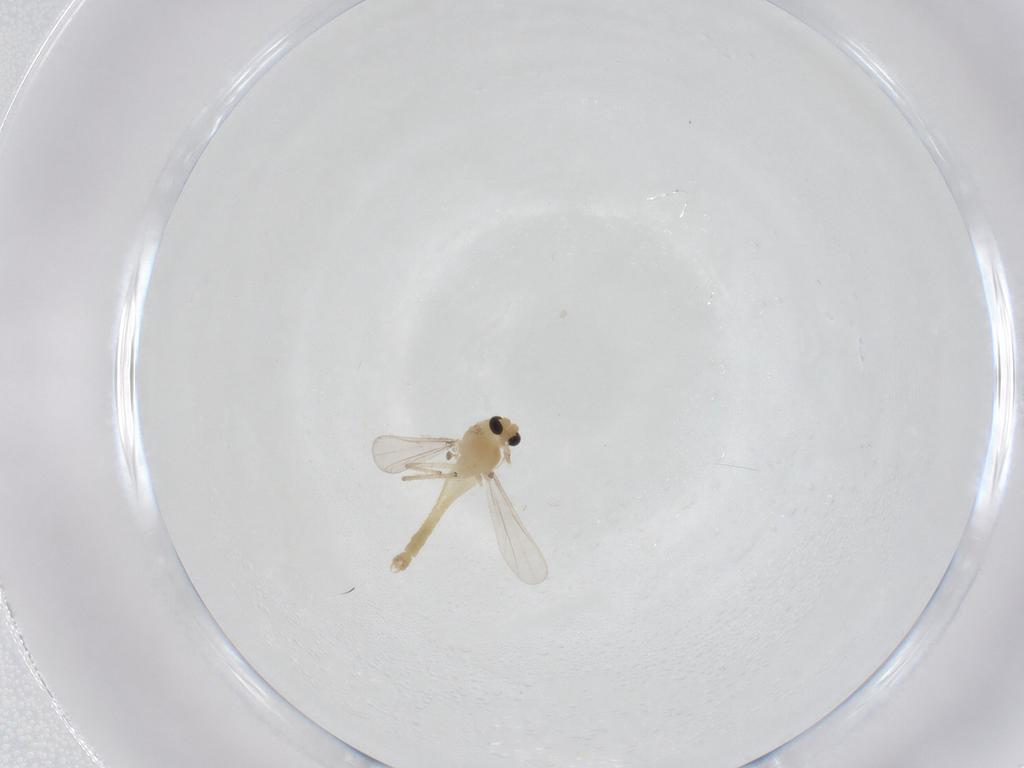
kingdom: Animalia
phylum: Arthropoda
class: Insecta
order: Diptera
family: Chironomidae
